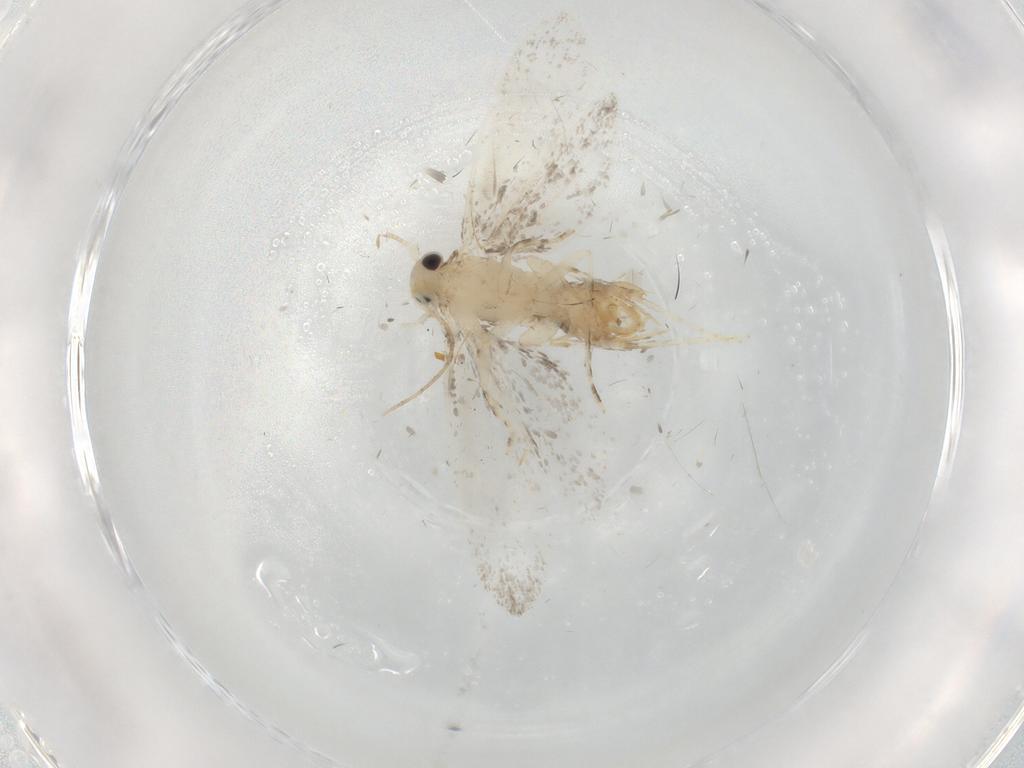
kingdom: Animalia
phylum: Arthropoda
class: Insecta
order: Lepidoptera
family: Tineidae
